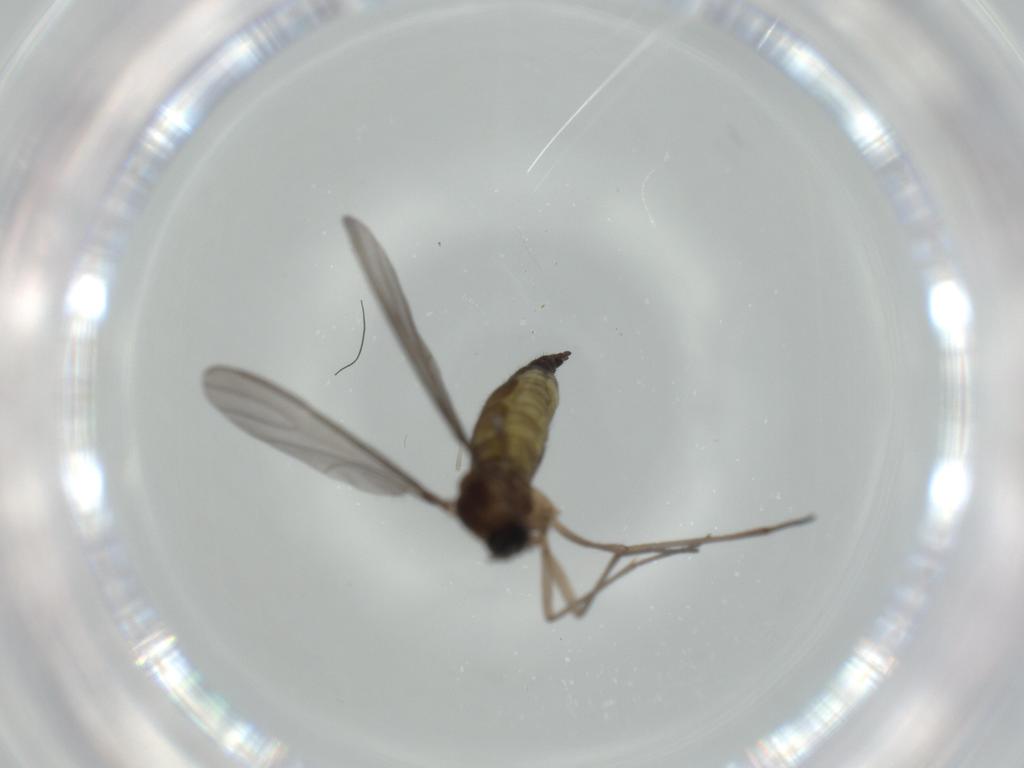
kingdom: Animalia
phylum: Arthropoda
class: Insecta
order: Diptera
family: Sciaridae
